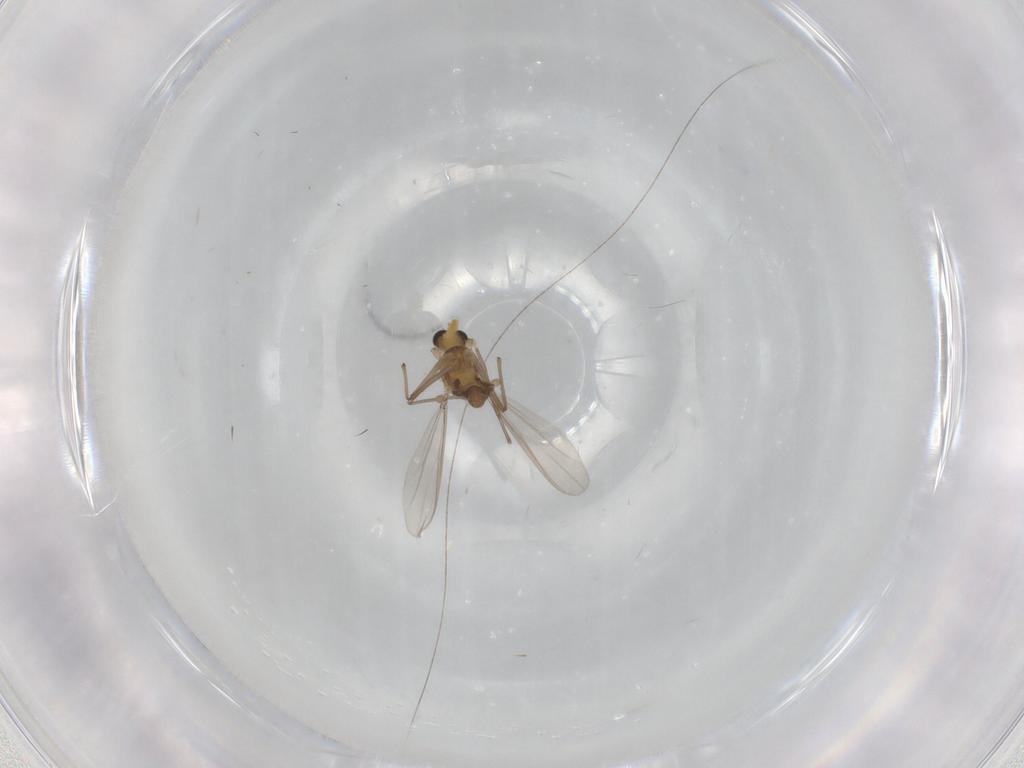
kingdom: Animalia
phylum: Arthropoda
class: Insecta
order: Diptera
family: Chironomidae
